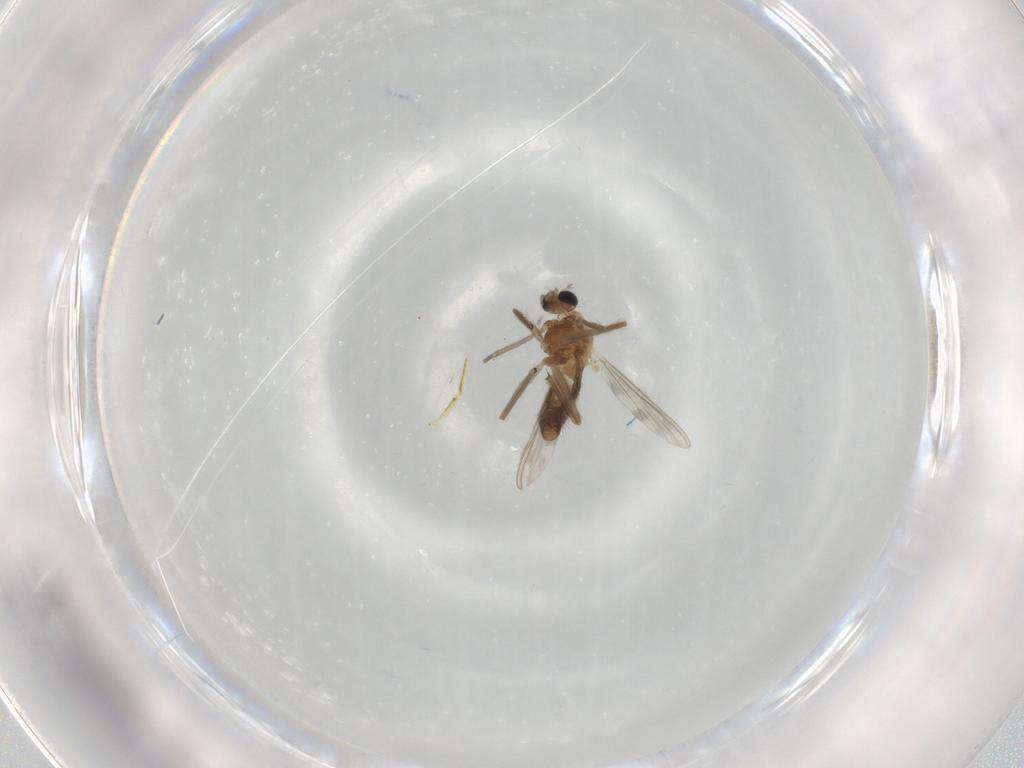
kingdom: Animalia
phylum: Arthropoda
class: Insecta
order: Diptera
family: Chironomidae
